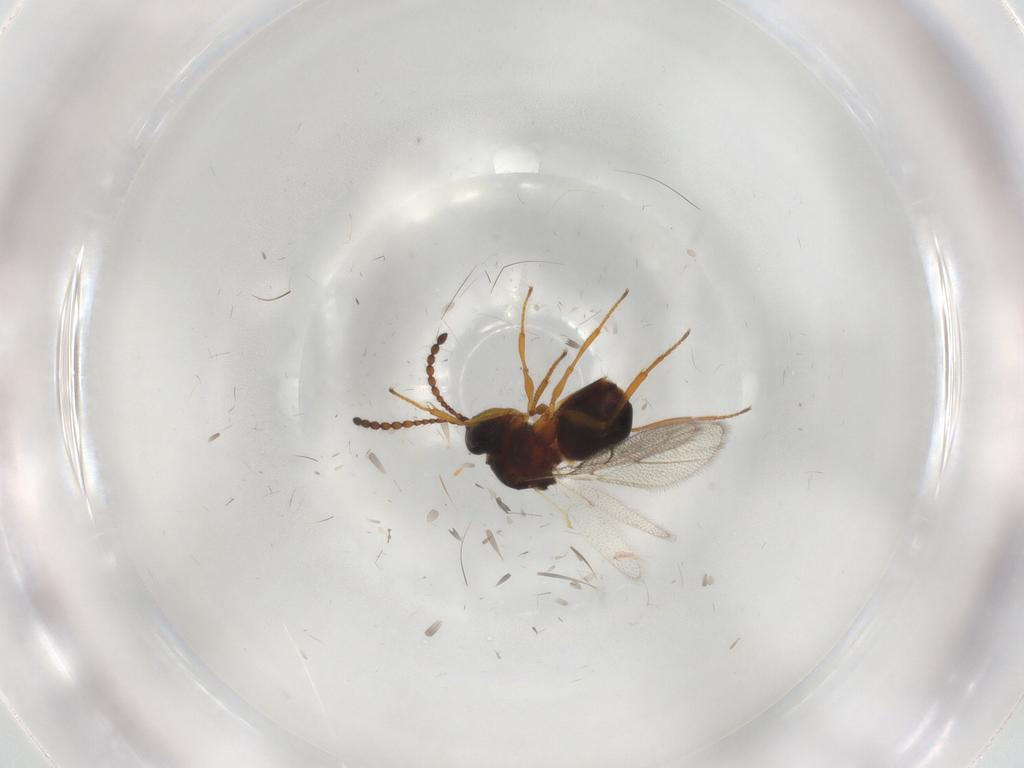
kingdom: Animalia
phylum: Arthropoda
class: Insecta
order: Hymenoptera
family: Figitidae
